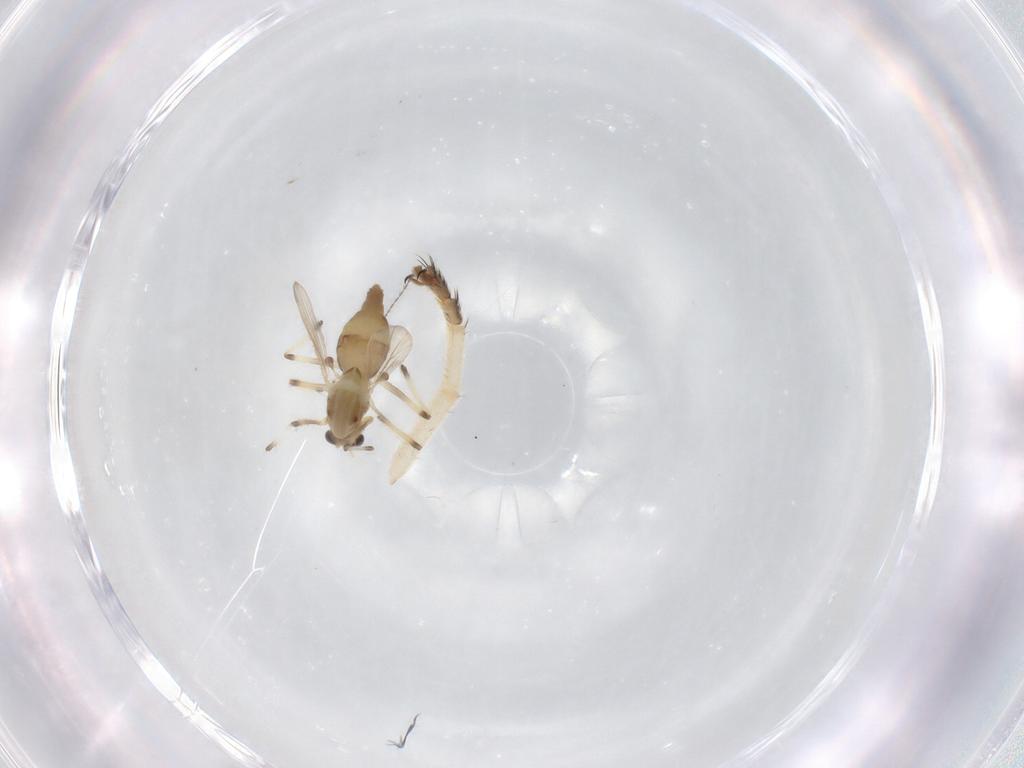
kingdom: Animalia
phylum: Arthropoda
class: Insecta
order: Diptera
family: Chironomidae
